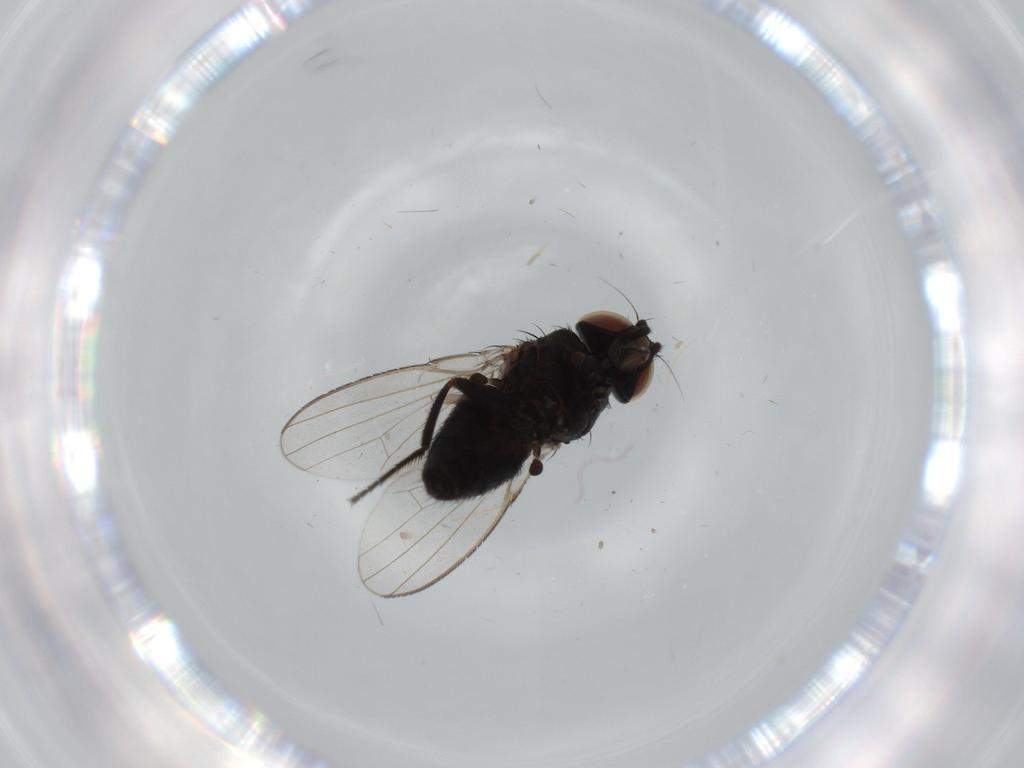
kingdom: Animalia
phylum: Arthropoda
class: Insecta
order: Diptera
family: Milichiidae
